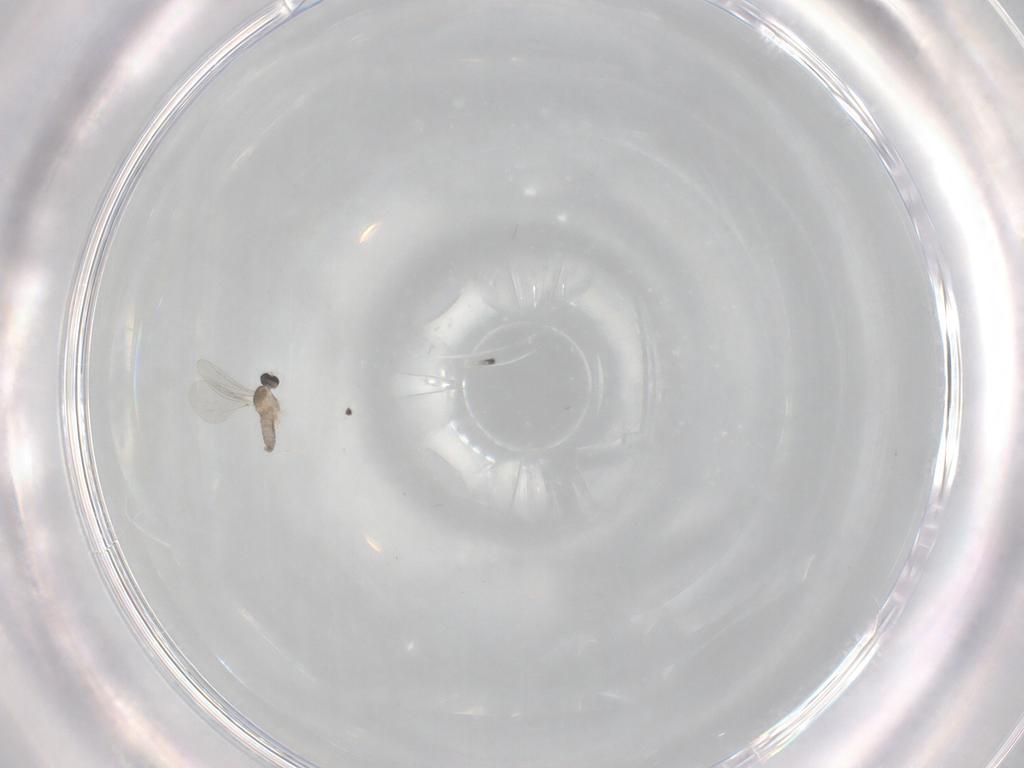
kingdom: Animalia
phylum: Arthropoda
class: Insecta
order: Diptera
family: Cecidomyiidae
